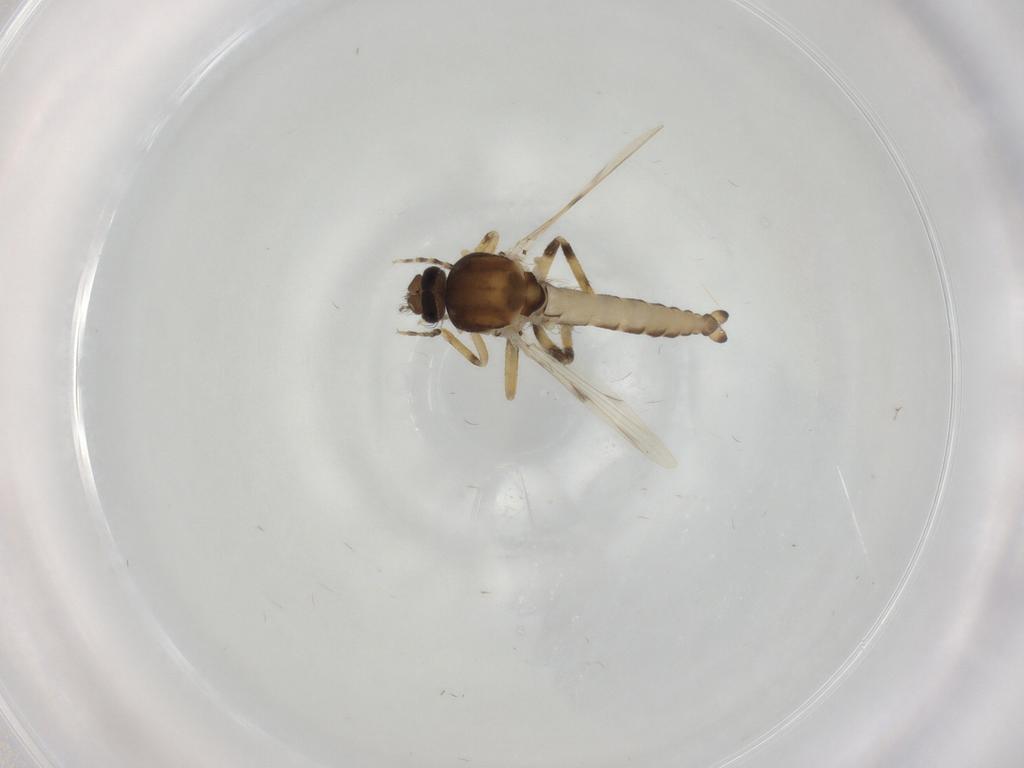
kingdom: Animalia
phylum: Arthropoda
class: Insecta
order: Diptera
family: Ceratopogonidae
